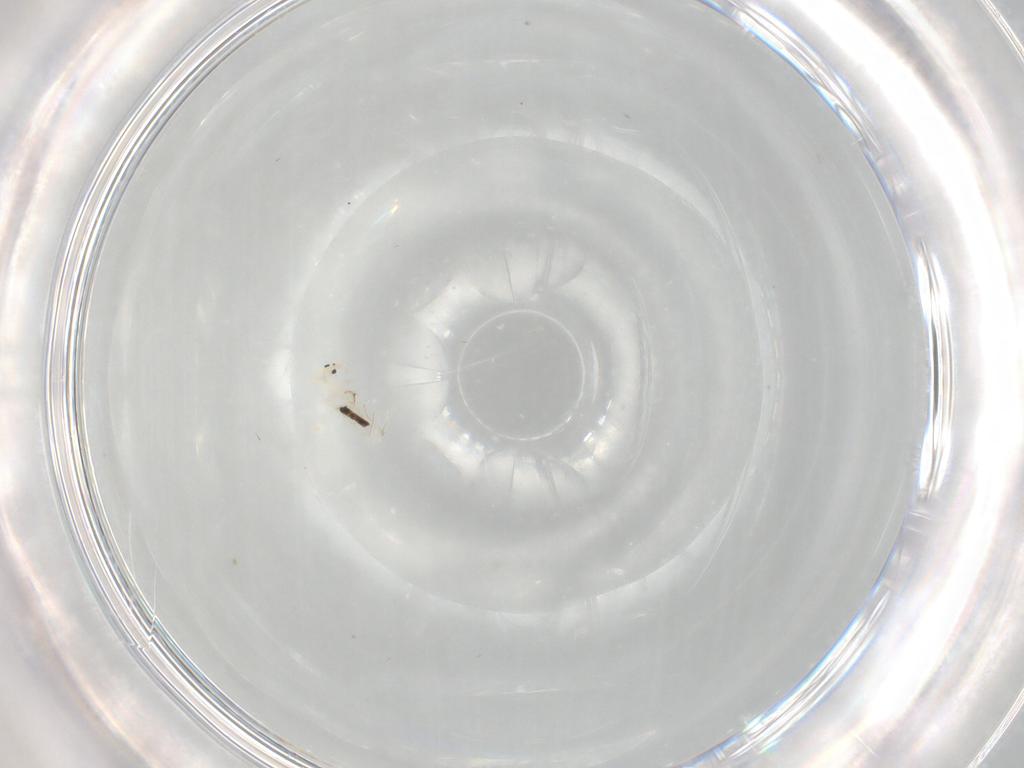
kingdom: Animalia
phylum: Arthropoda
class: Collembola
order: Entomobryomorpha
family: Entomobryidae
